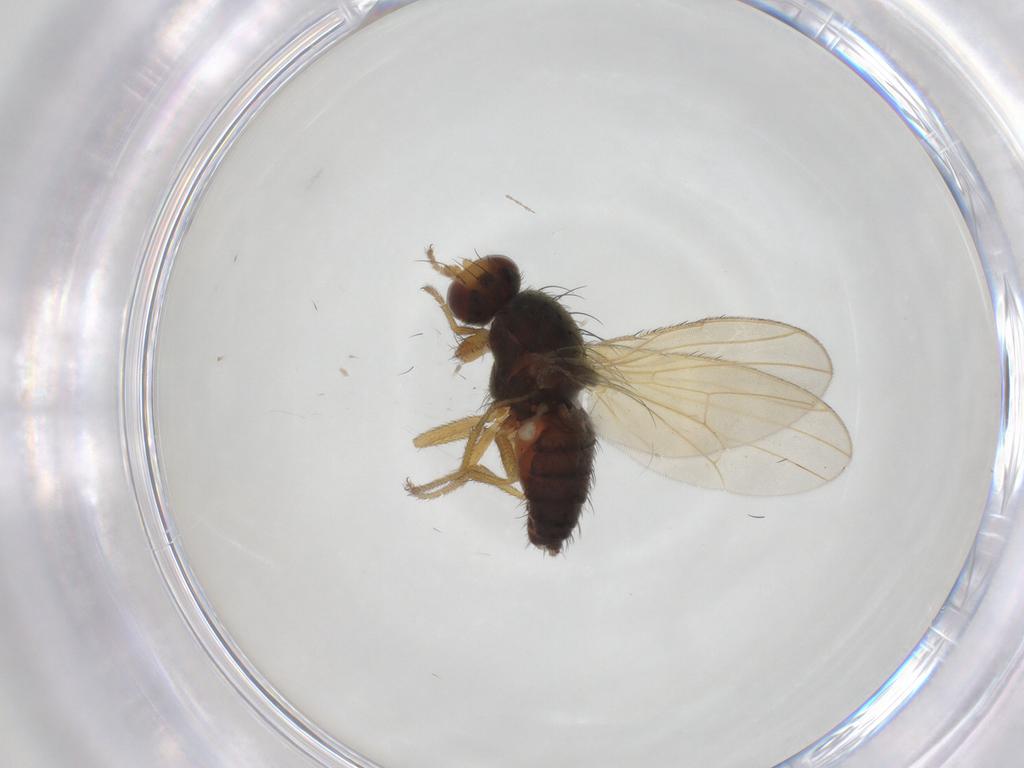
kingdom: Animalia
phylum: Arthropoda
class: Insecta
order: Diptera
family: Heleomyzidae
